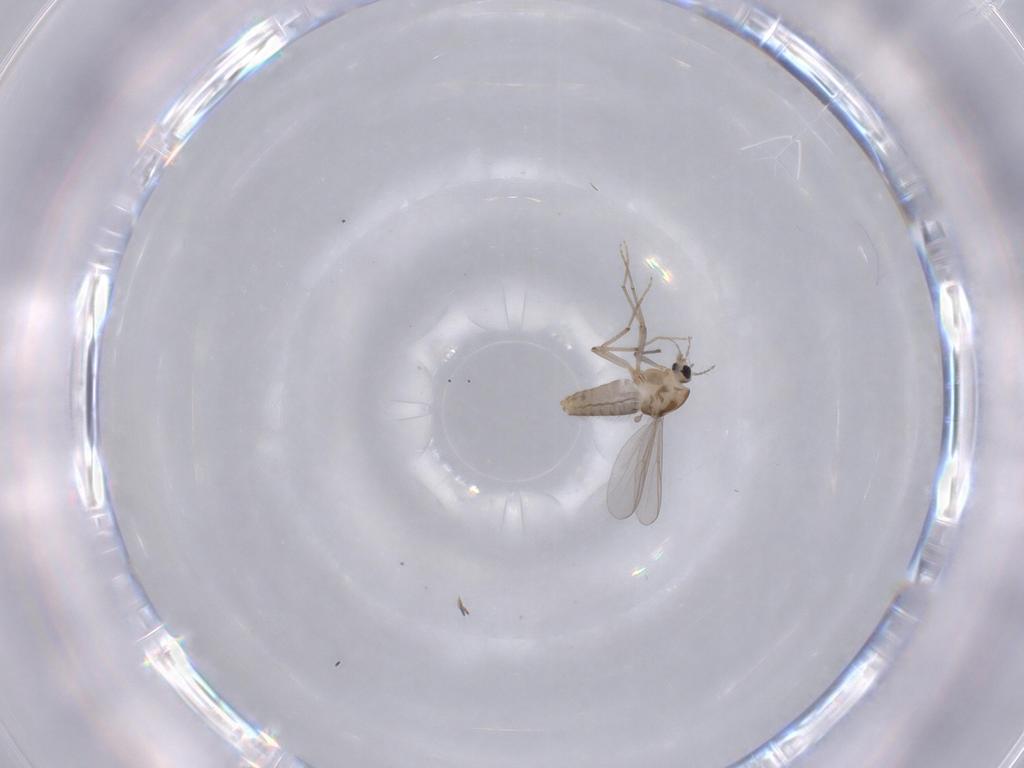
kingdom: Animalia
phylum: Arthropoda
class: Insecta
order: Diptera
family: Chironomidae
